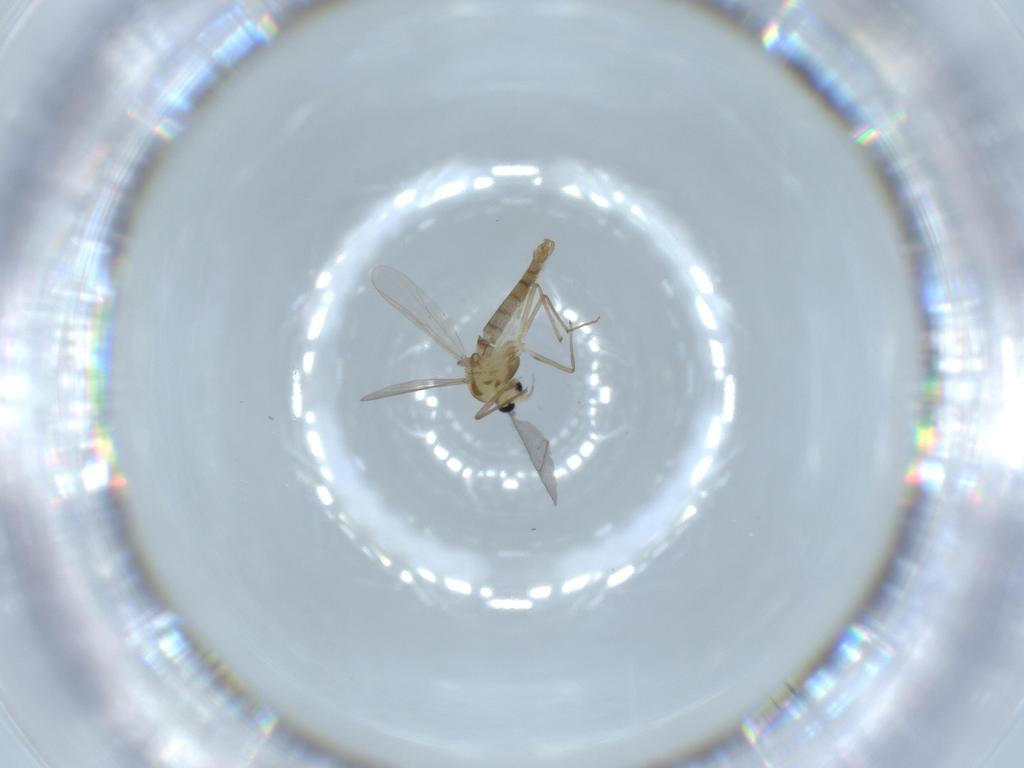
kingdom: Animalia
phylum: Arthropoda
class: Insecta
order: Diptera
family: Chironomidae
